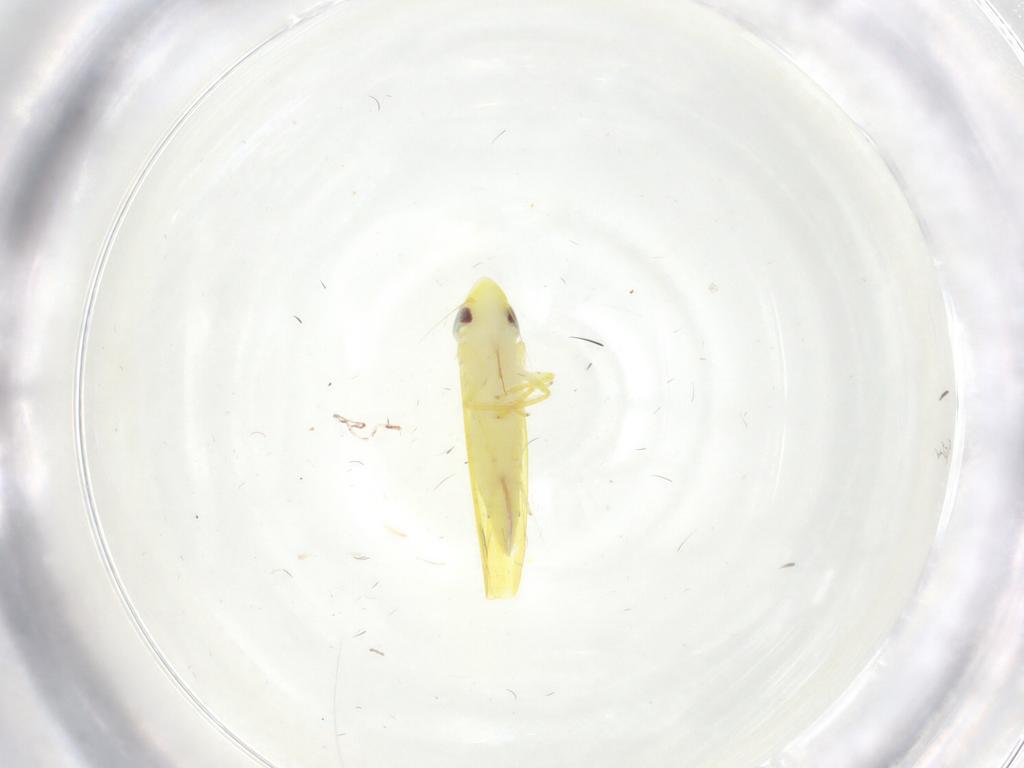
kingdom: Animalia
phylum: Arthropoda
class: Insecta
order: Hemiptera
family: Cicadellidae
